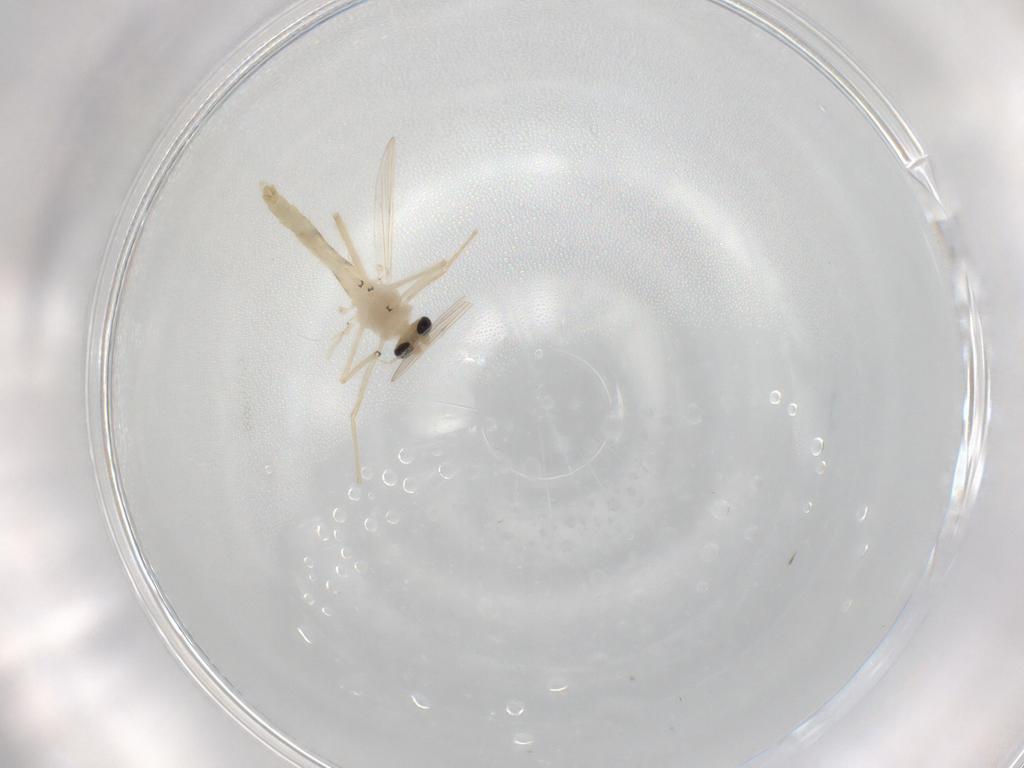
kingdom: Animalia
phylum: Arthropoda
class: Insecta
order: Diptera
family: Chironomidae
